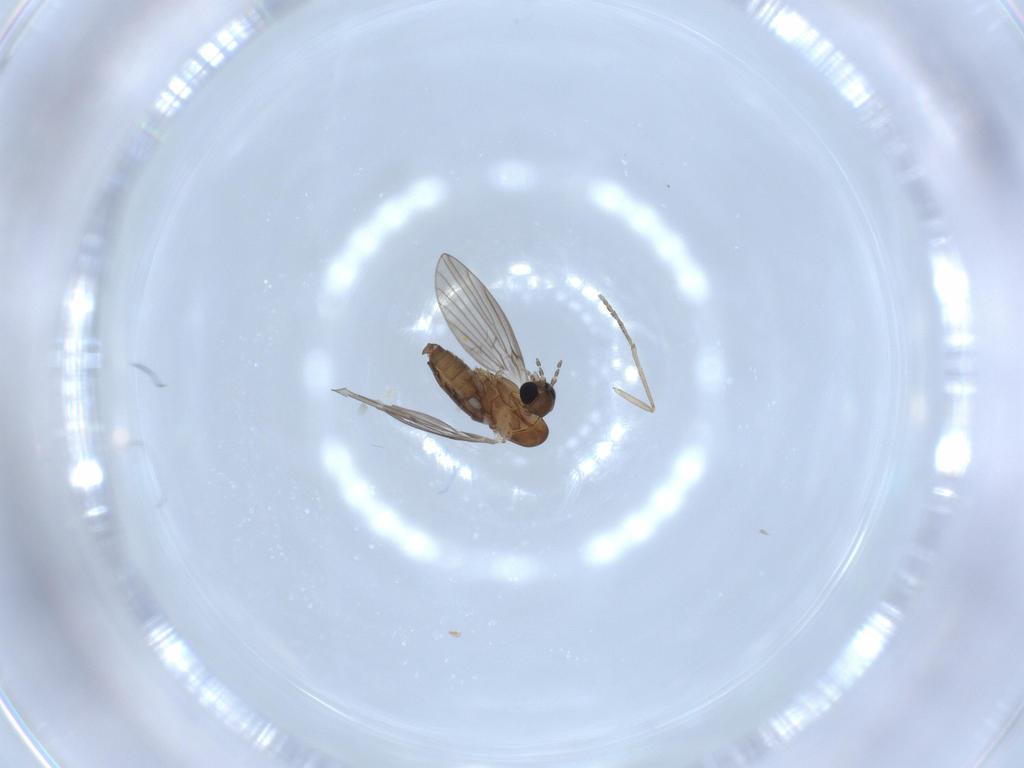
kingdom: Animalia
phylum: Arthropoda
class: Insecta
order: Diptera
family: Psychodidae
